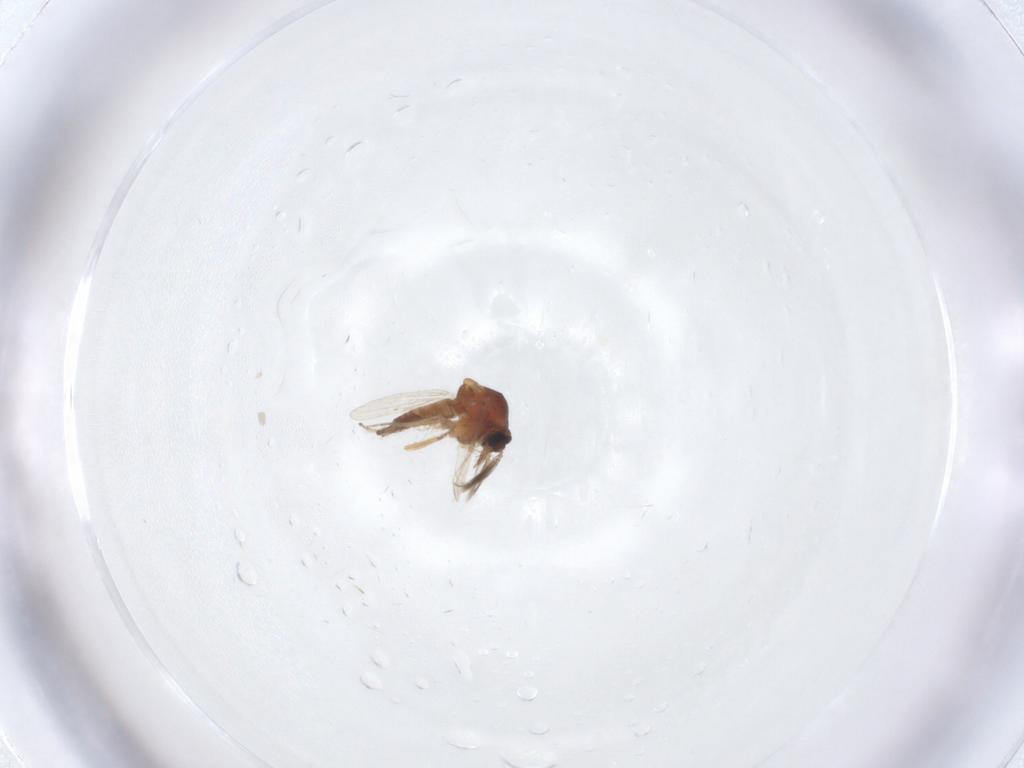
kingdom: Animalia
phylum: Arthropoda
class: Insecta
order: Diptera
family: Ceratopogonidae
